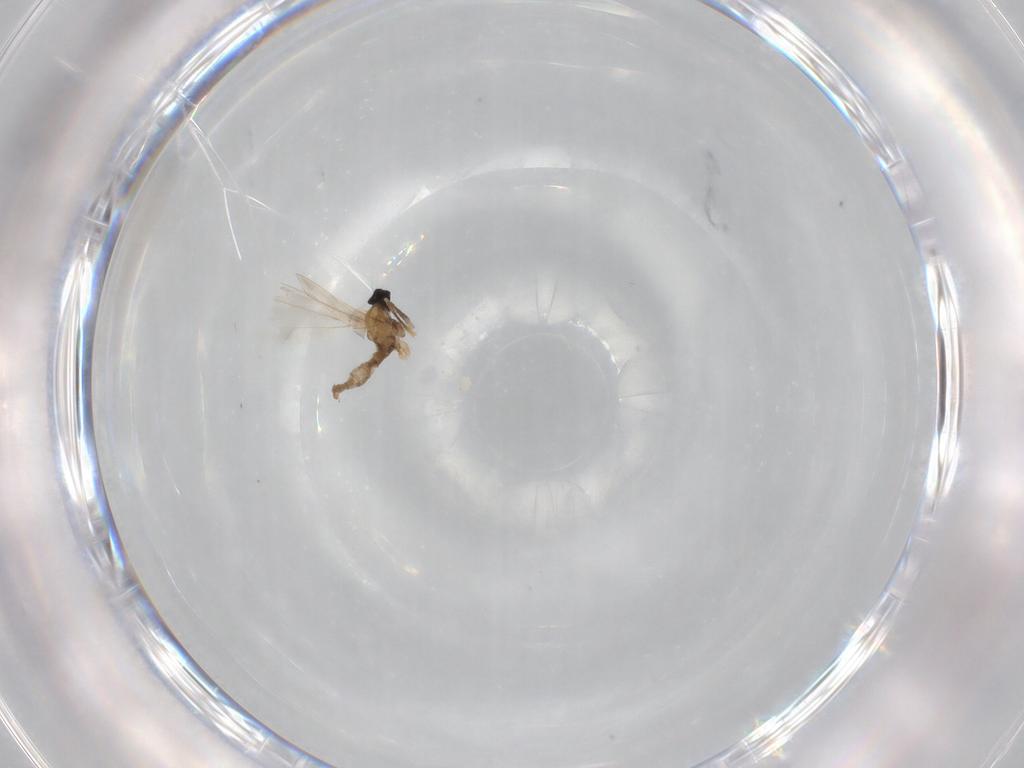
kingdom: Animalia
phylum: Arthropoda
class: Insecta
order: Diptera
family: Cecidomyiidae
